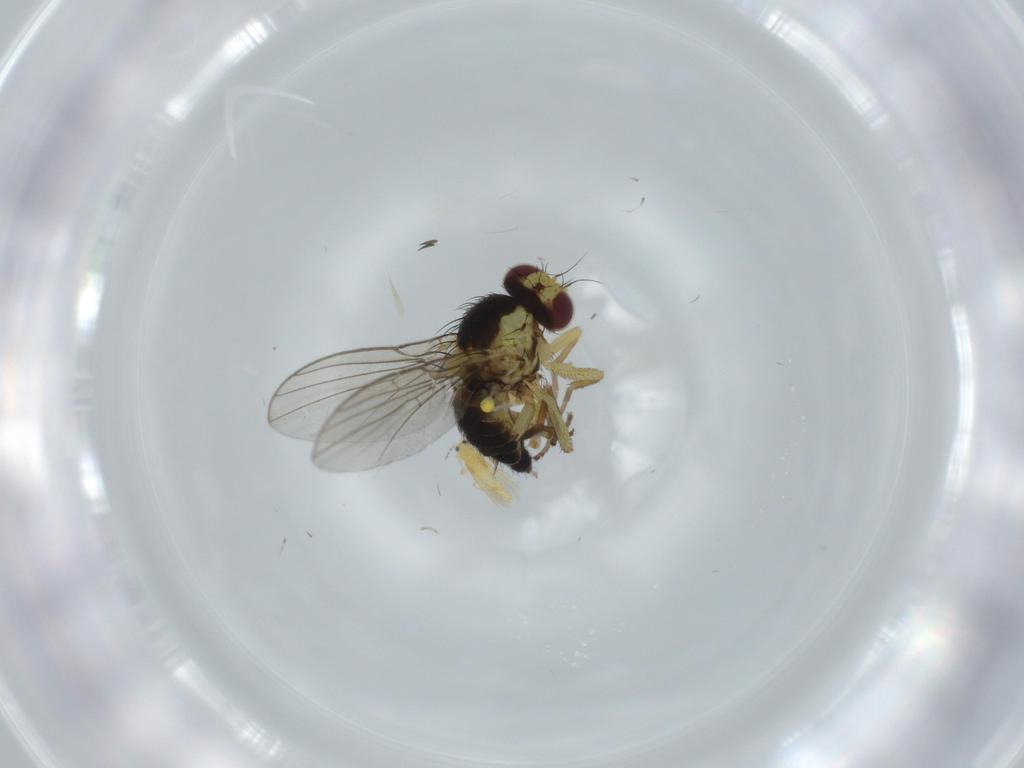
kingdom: Animalia
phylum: Arthropoda
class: Insecta
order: Diptera
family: Agromyzidae
